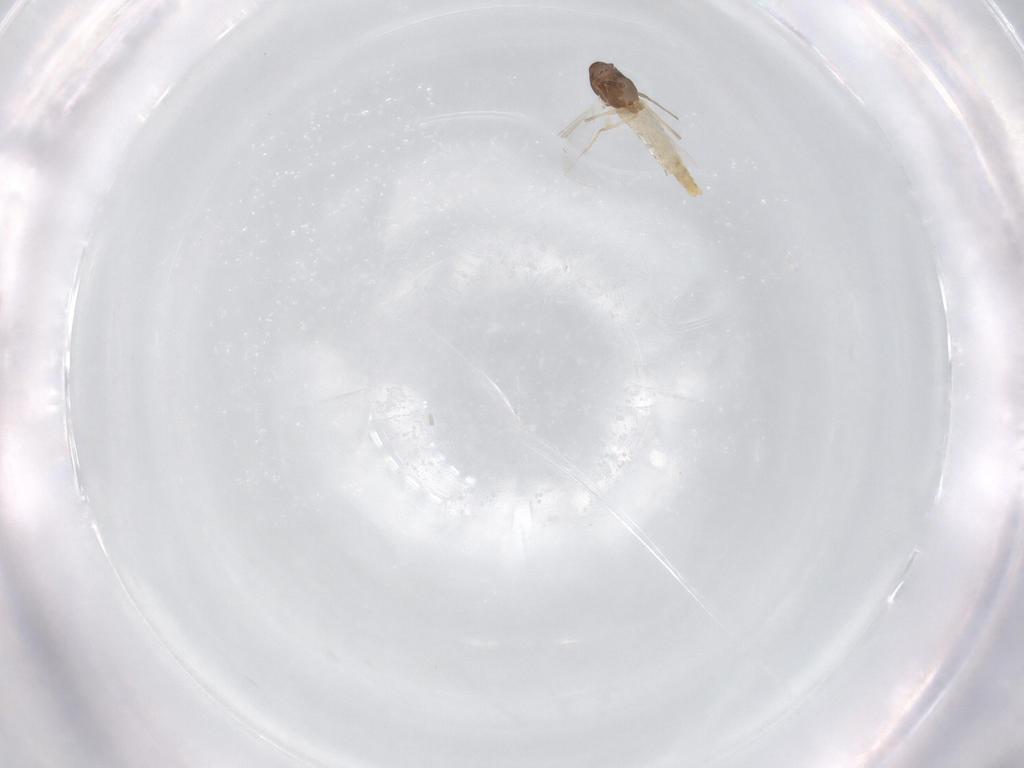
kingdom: Animalia
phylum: Arthropoda
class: Insecta
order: Diptera
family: Chironomidae
